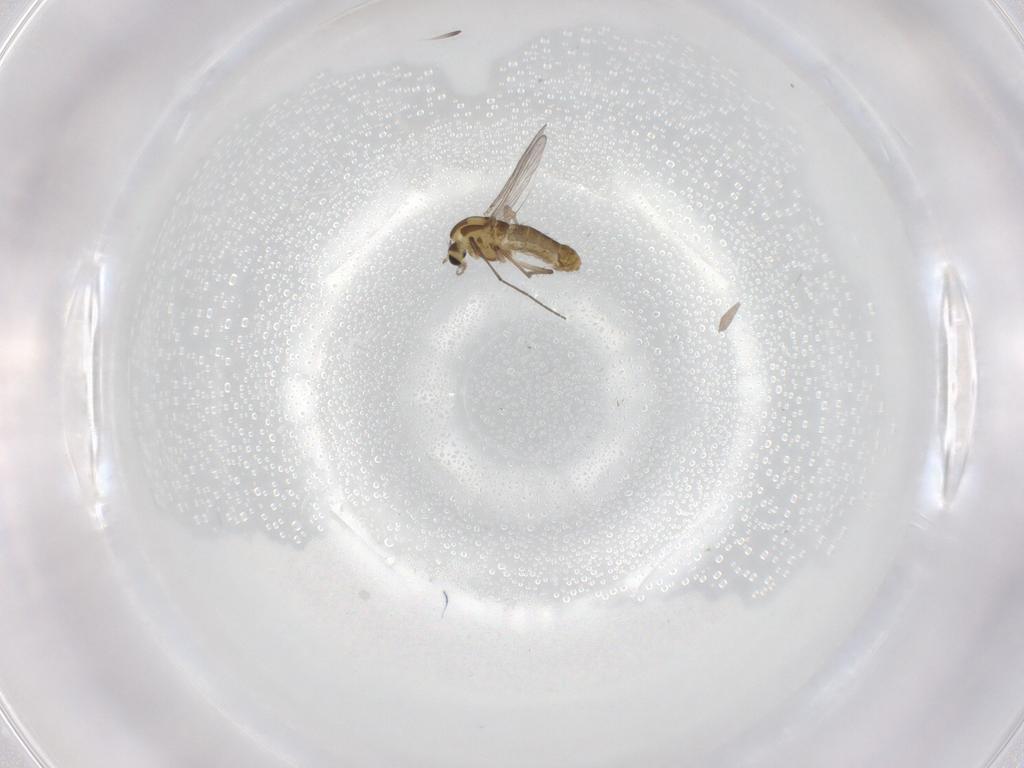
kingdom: Animalia
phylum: Arthropoda
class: Insecta
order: Diptera
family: Chironomidae
